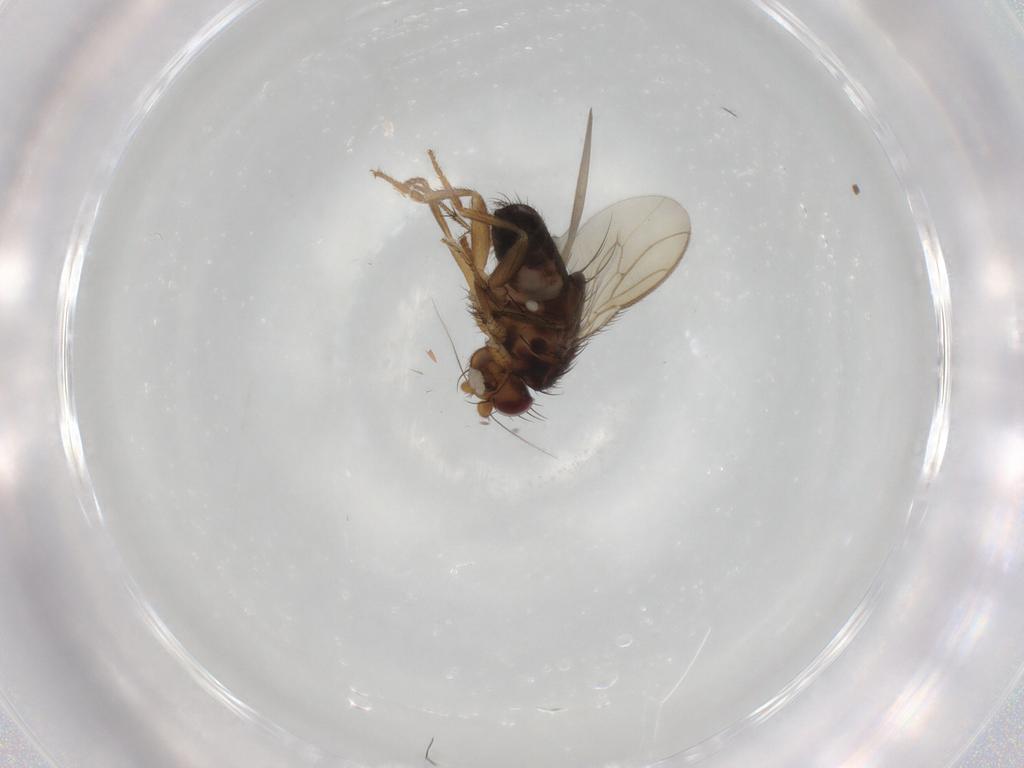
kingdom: Animalia
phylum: Arthropoda
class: Insecta
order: Diptera
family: Sphaeroceridae
